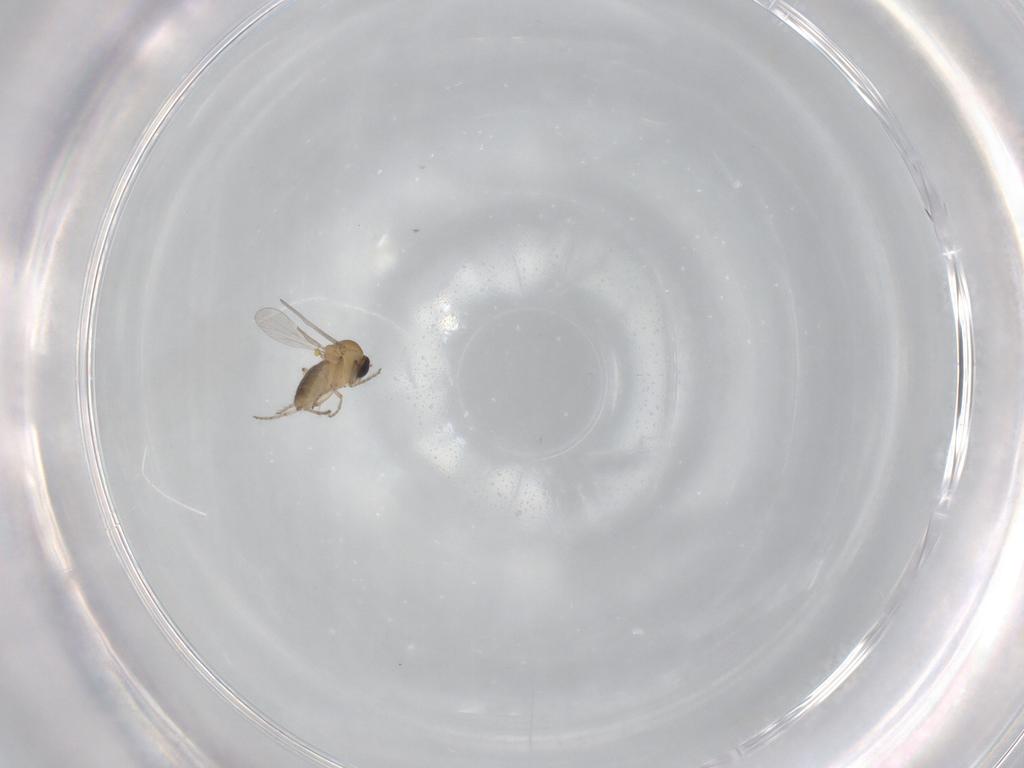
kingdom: Animalia
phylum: Arthropoda
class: Insecta
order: Diptera
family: Ceratopogonidae
